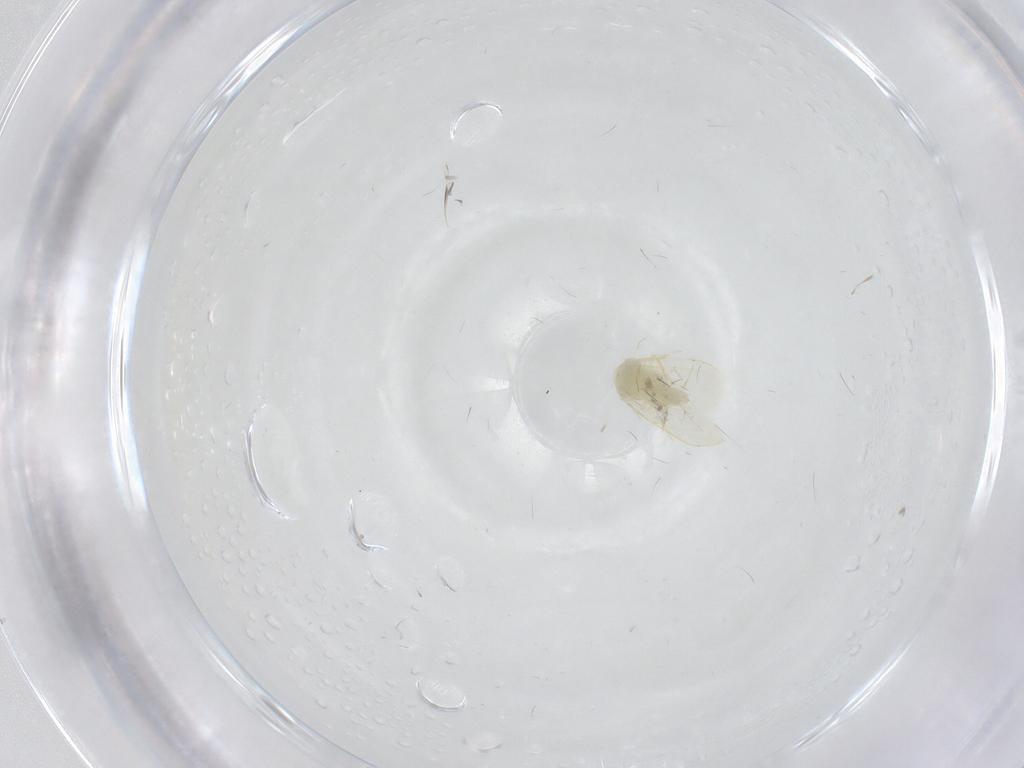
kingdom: Animalia
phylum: Arthropoda
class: Insecta
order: Hemiptera
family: Aleyrodidae
